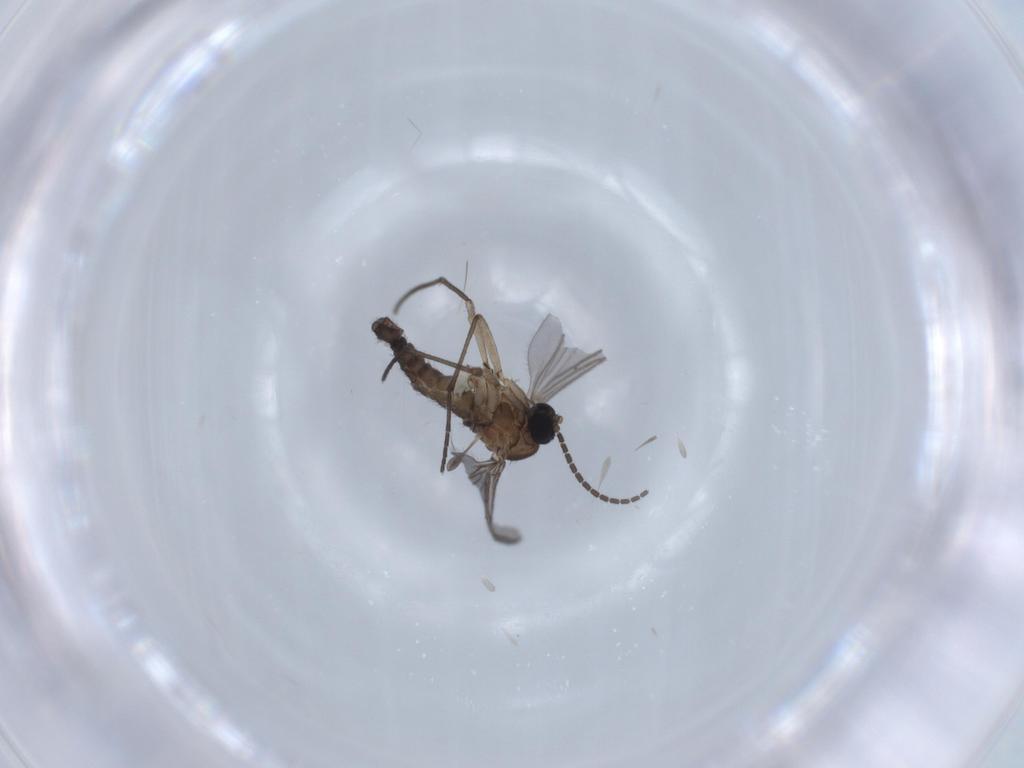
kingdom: Animalia
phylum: Arthropoda
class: Insecta
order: Diptera
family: Sciaridae
